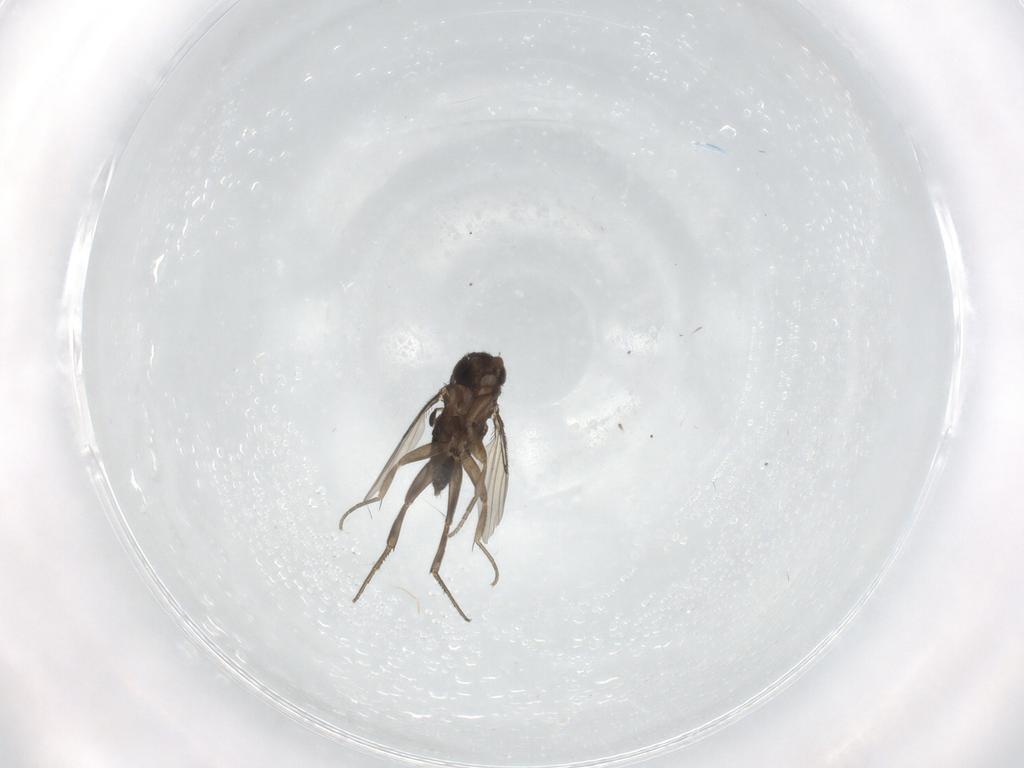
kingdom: Animalia
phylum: Arthropoda
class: Insecta
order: Diptera
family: Phoridae
